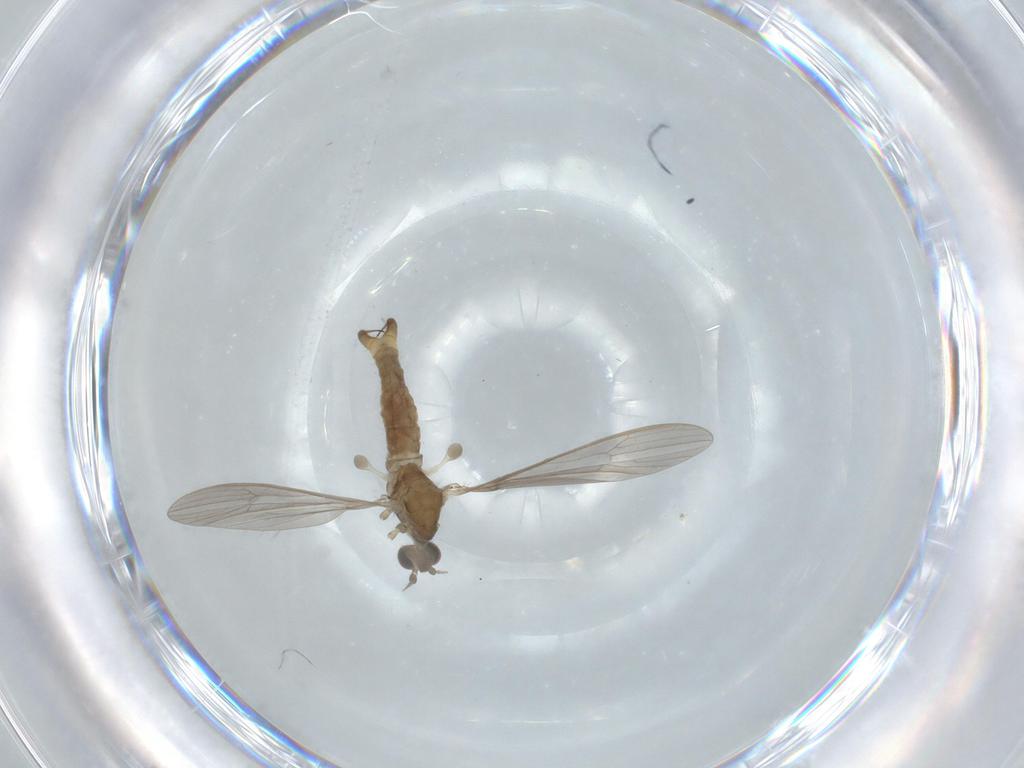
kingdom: Animalia
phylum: Arthropoda
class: Insecta
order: Diptera
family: Limoniidae
